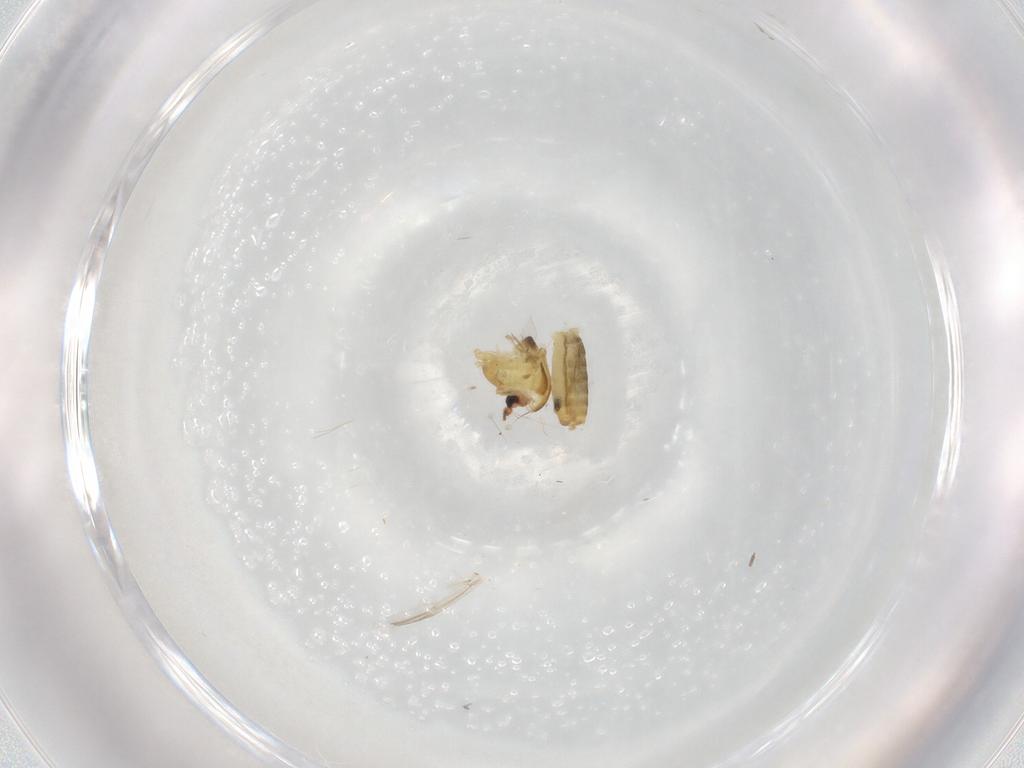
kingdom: Animalia
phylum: Arthropoda
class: Insecta
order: Diptera
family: Chironomidae
